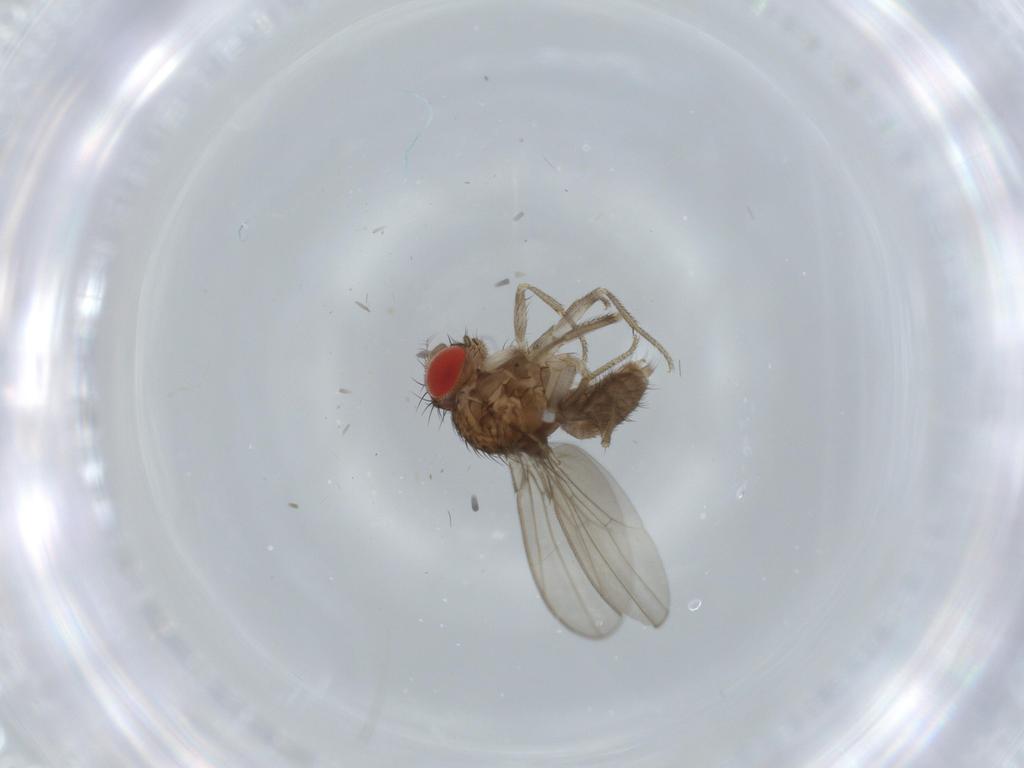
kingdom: Animalia
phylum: Arthropoda
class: Insecta
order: Diptera
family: Drosophilidae
